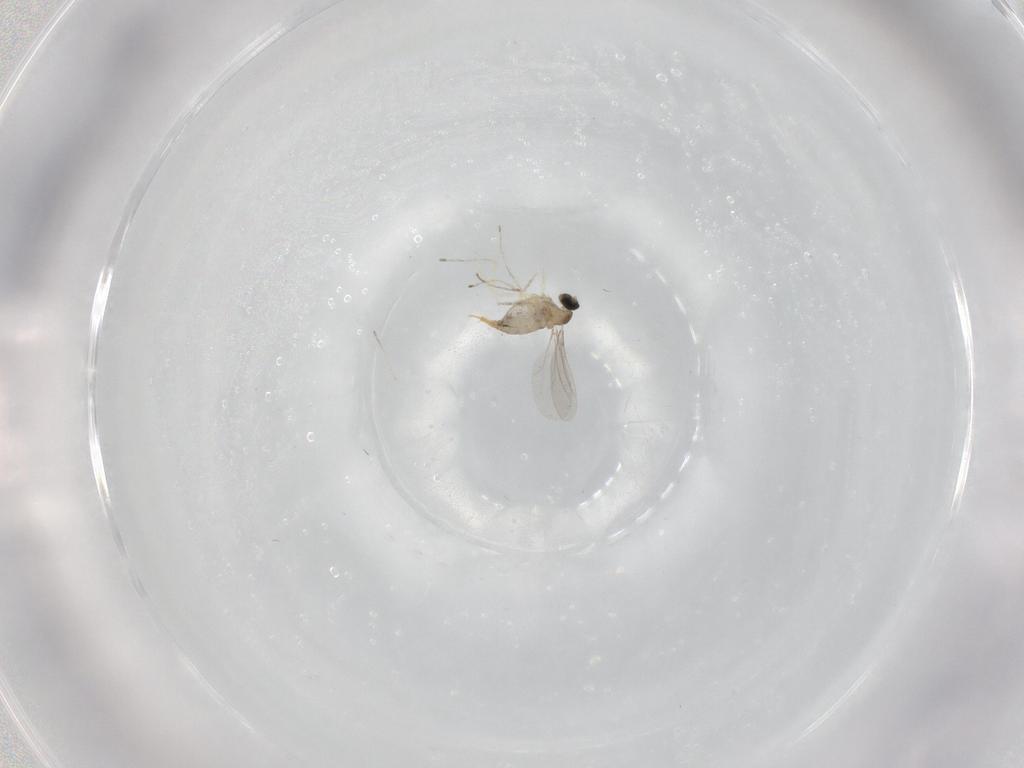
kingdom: Animalia
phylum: Arthropoda
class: Insecta
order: Diptera
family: Cecidomyiidae
